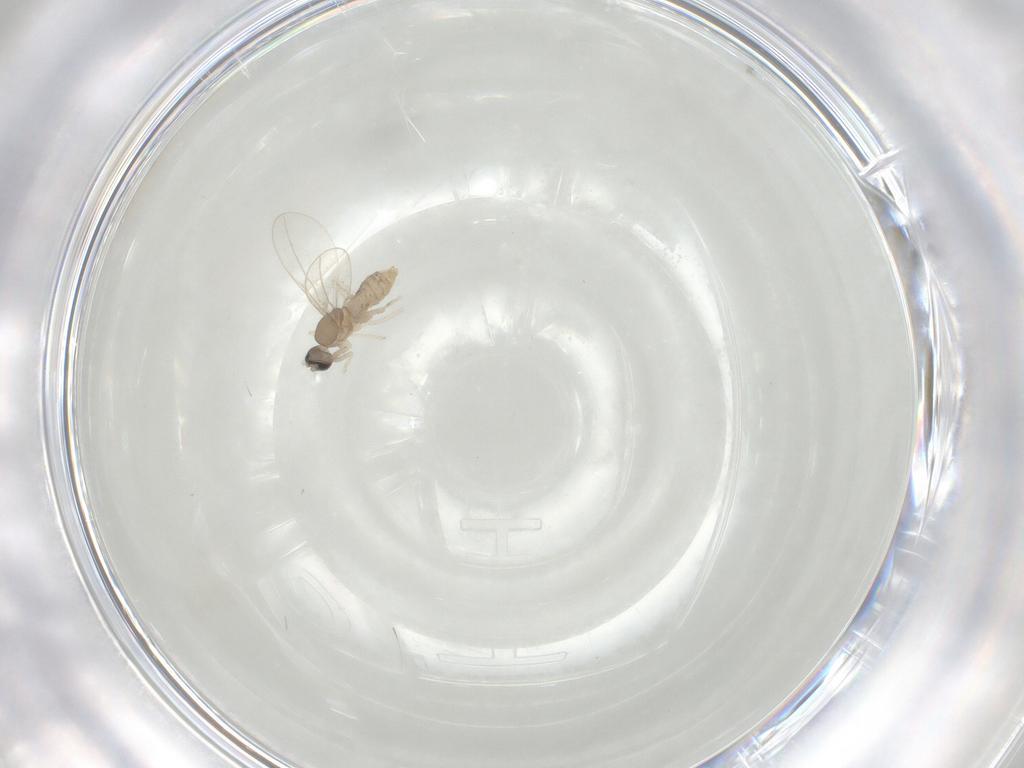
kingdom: Animalia
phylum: Arthropoda
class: Insecta
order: Diptera
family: Cecidomyiidae
